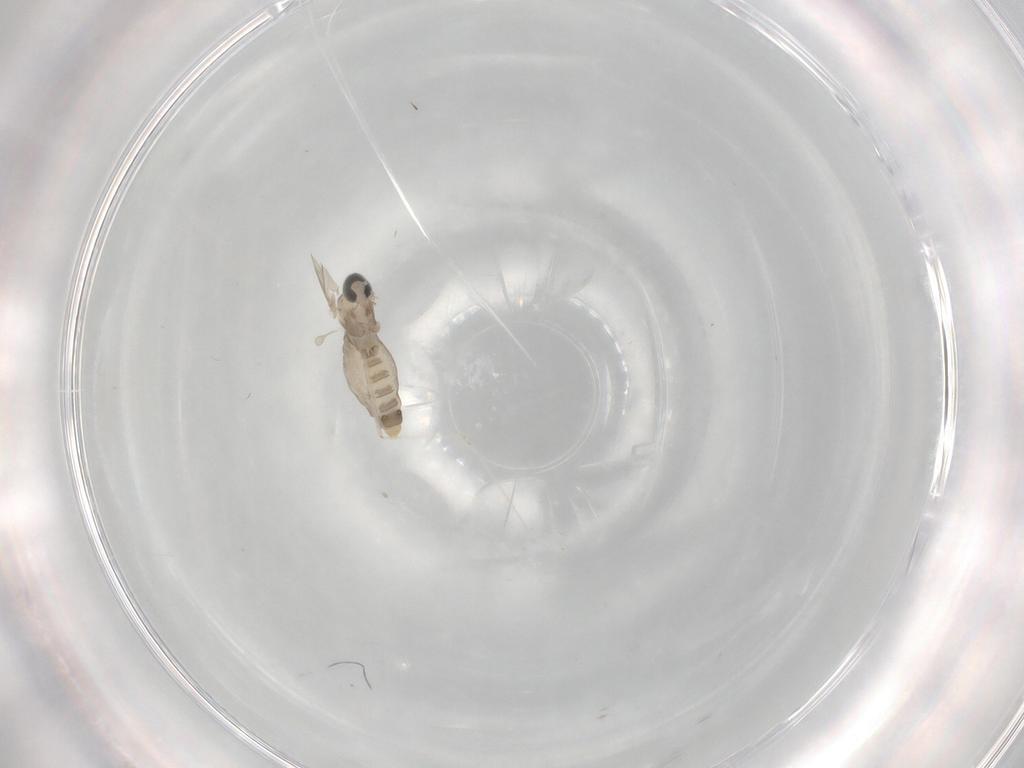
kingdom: Animalia
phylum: Arthropoda
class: Insecta
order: Diptera
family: Cecidomyiidae
